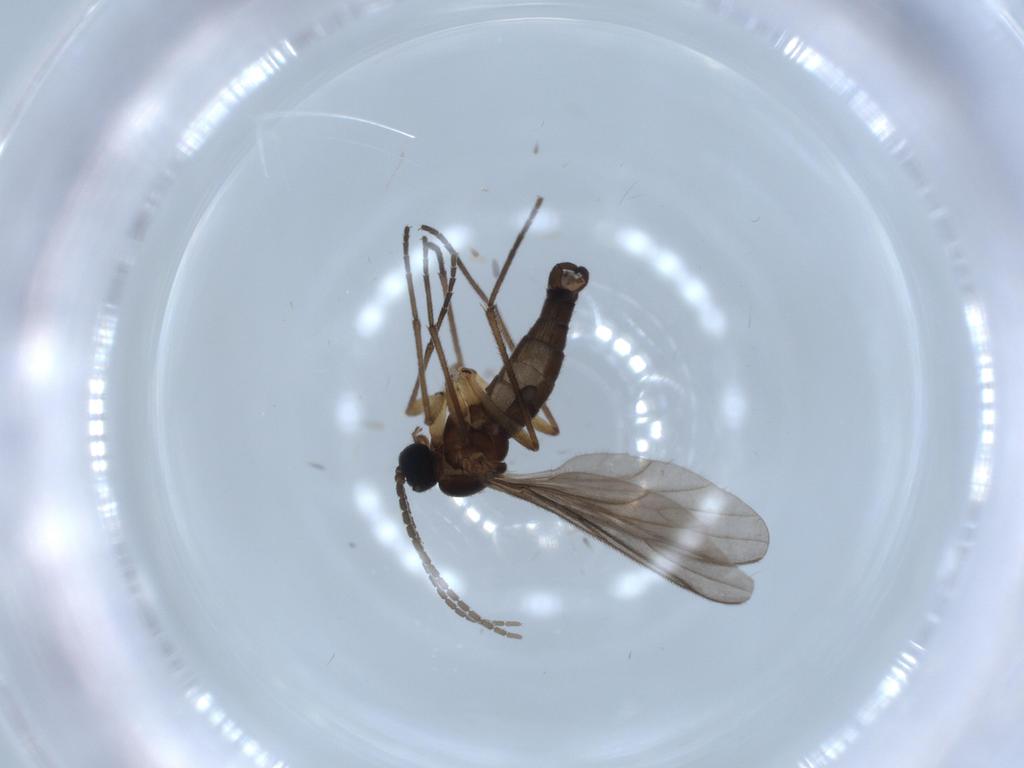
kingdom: Animalia
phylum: Arthropoda
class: Insecta
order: Diptera
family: Sciaridae
